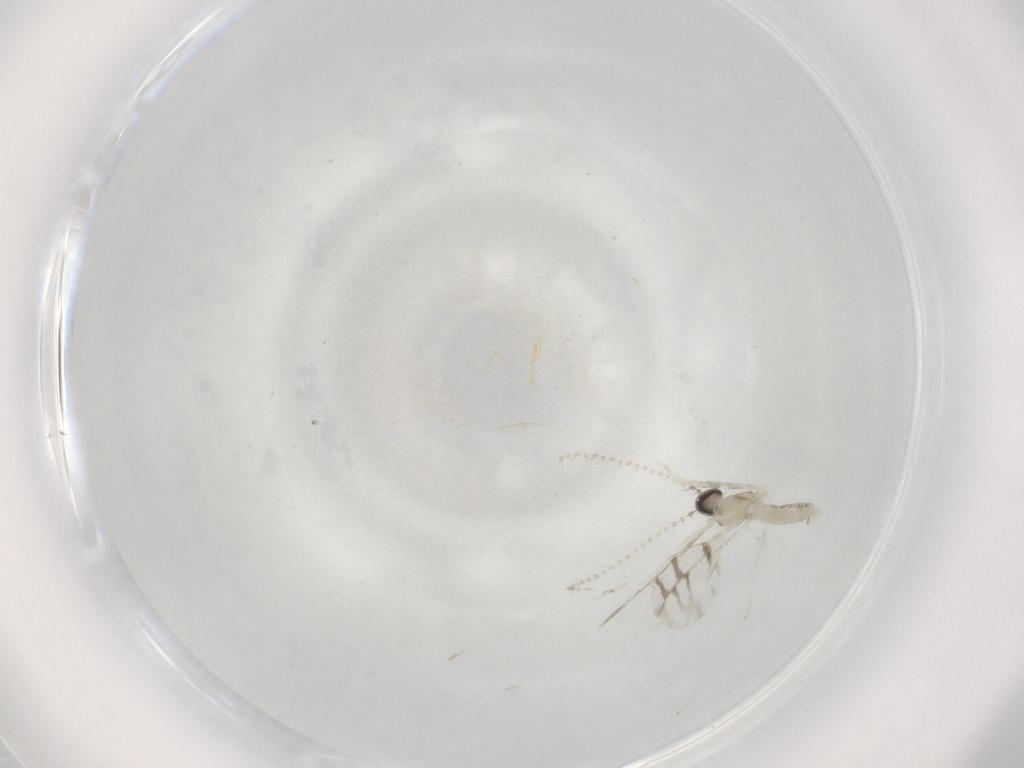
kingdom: Animalia
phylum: Arthropoda
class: Insecta
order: Diptera
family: Cecidomyiidae
